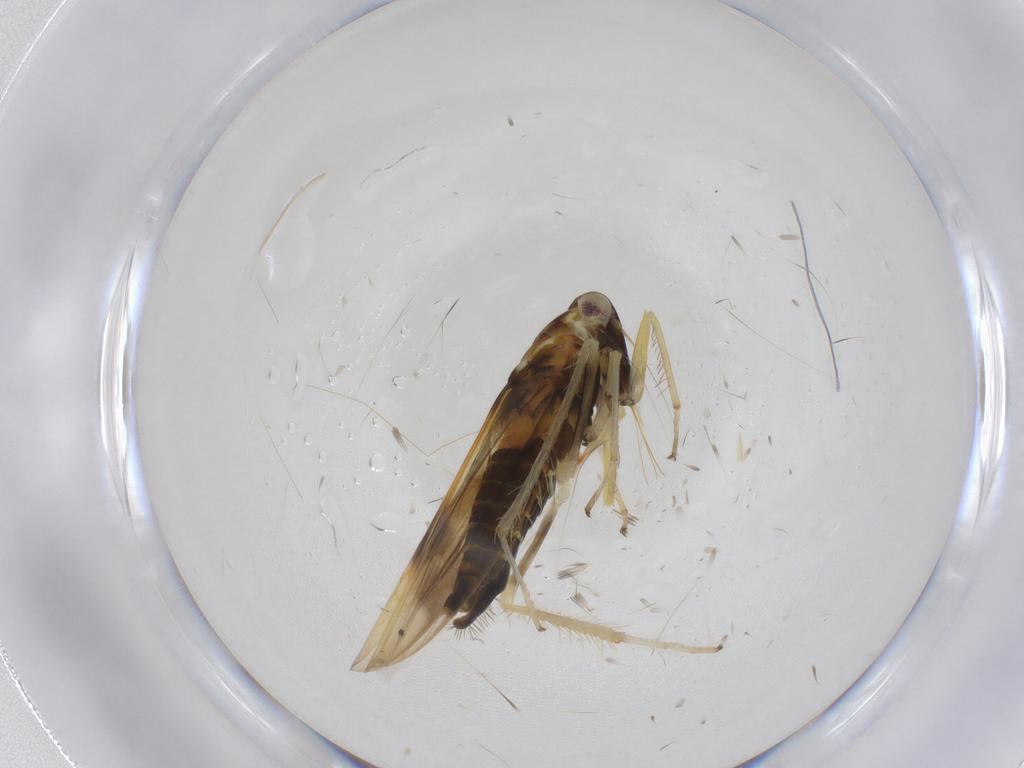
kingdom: Animalia
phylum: Arthropoda
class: Insecta
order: Hemiptera
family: Cicadellidae
